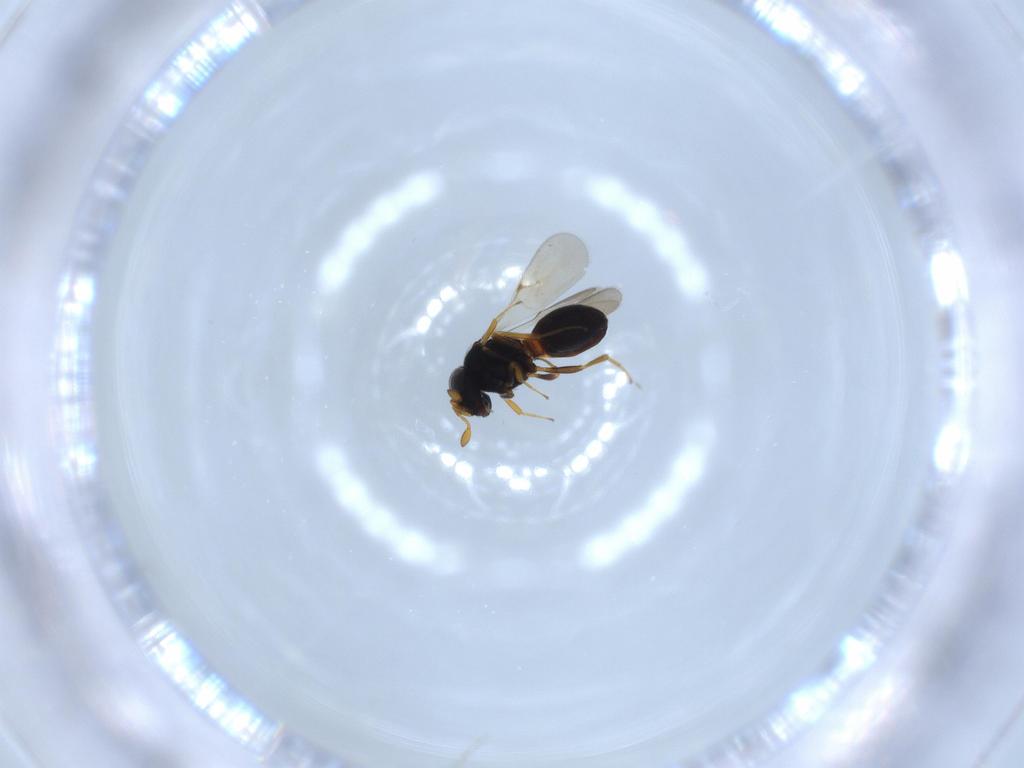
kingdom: Animalia
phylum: Arthropoda
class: Insecta
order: Hymenoptera
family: Scelionidae
